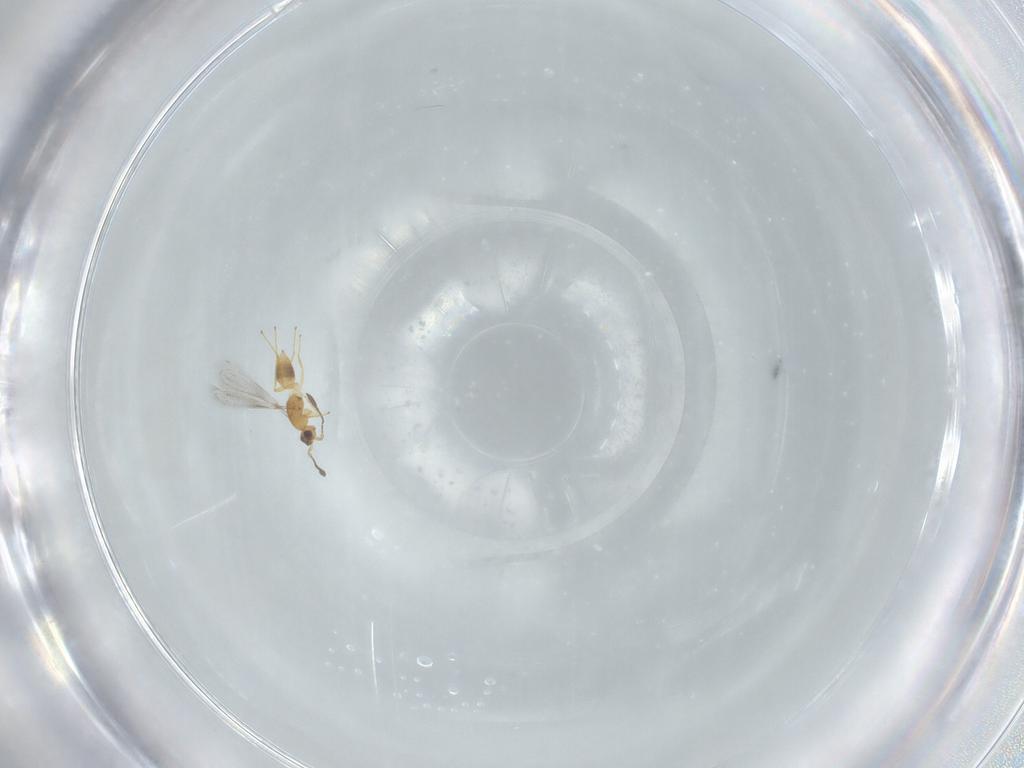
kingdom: Animalia
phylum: Arthropoda
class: Insecta
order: Hymenoptera
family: Mymaridae
